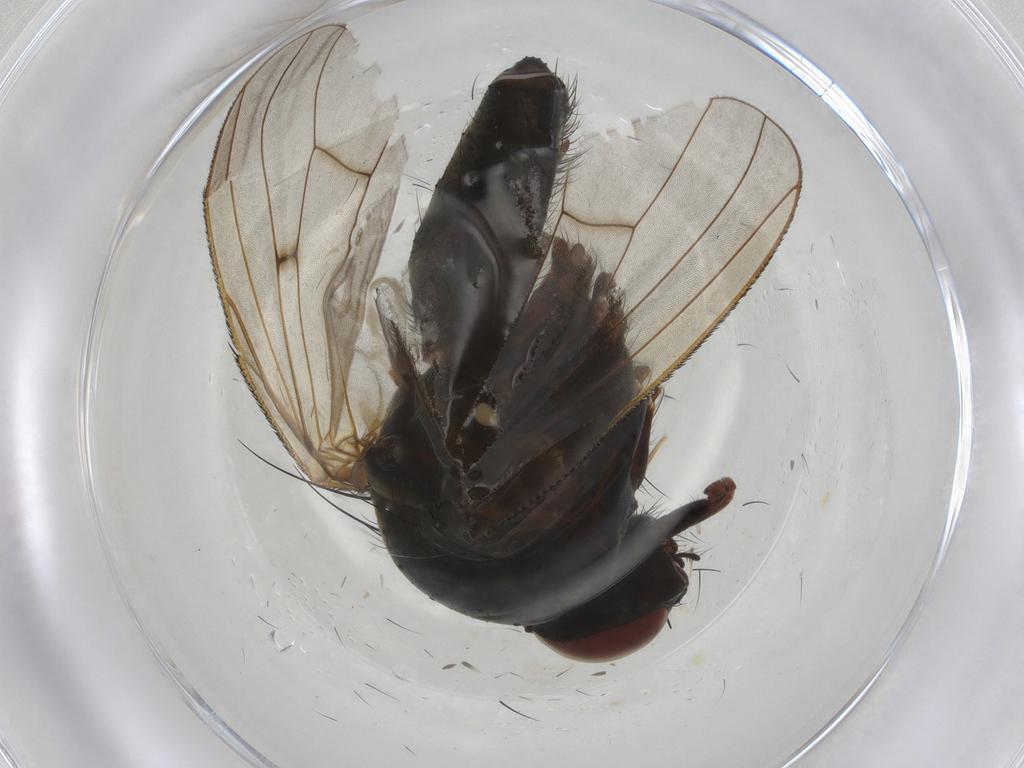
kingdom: Animalia
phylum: Arthropoda
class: Insecta
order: Diptera
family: Anthomyiidae
